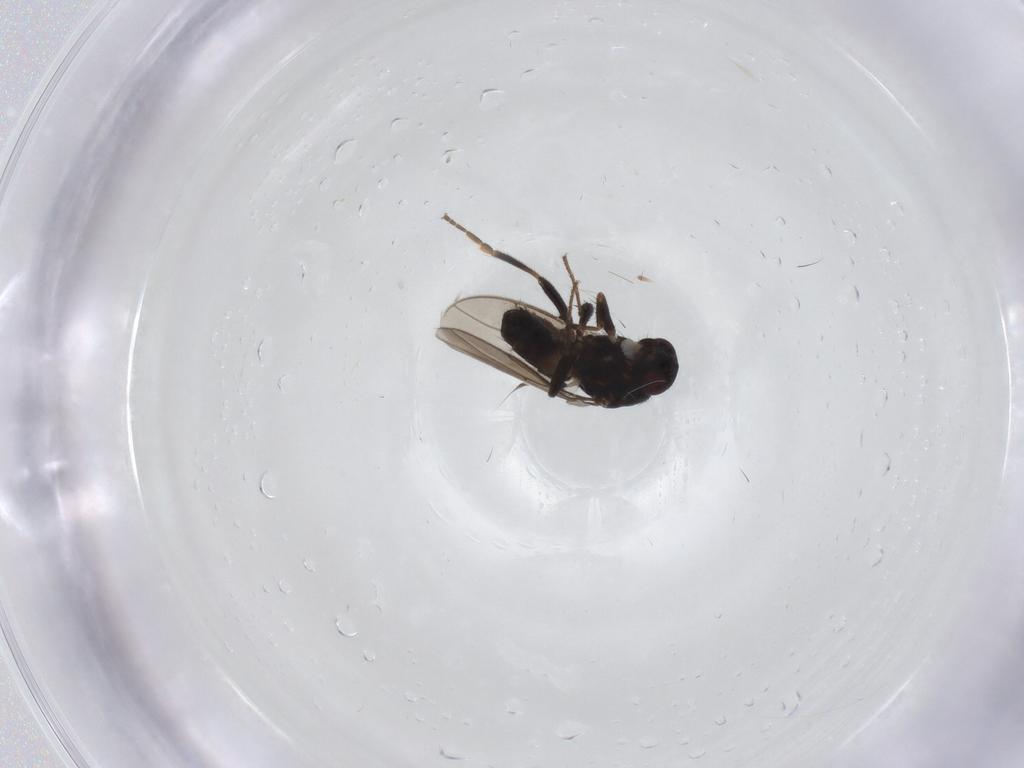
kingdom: Animalia
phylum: Arthropoda
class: Insecta
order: Diptera
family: Sphaeroceridae
